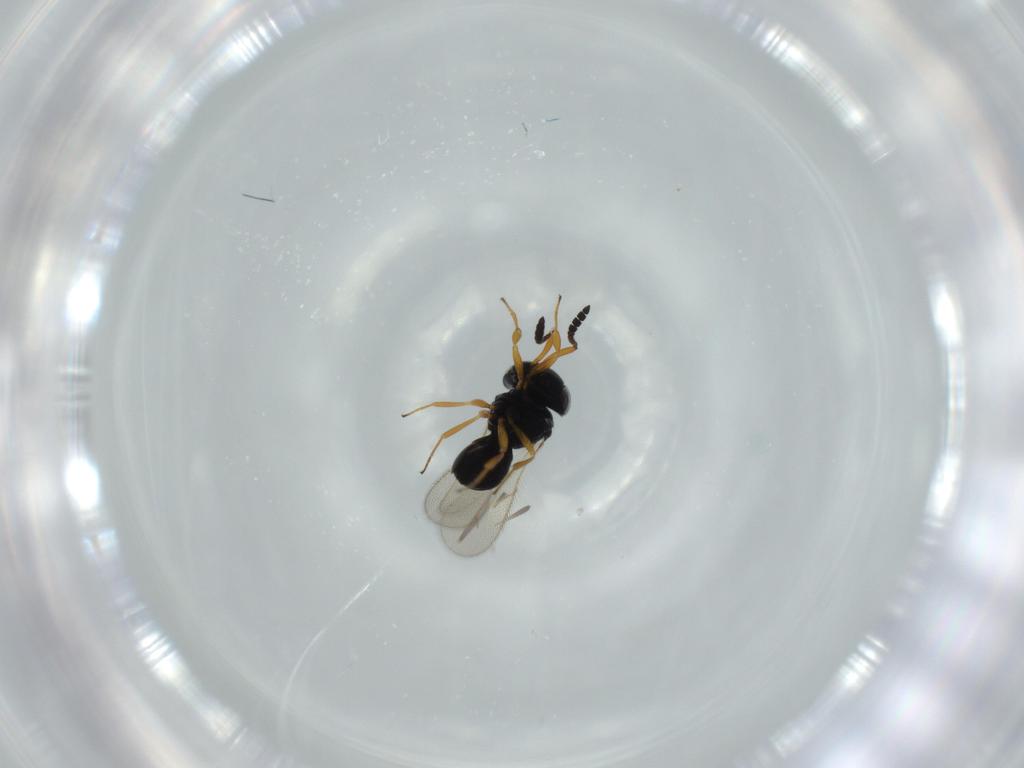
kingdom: Animalia
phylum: Arthropoda
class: Insecta
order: Hymenoptera
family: Scelionidae
